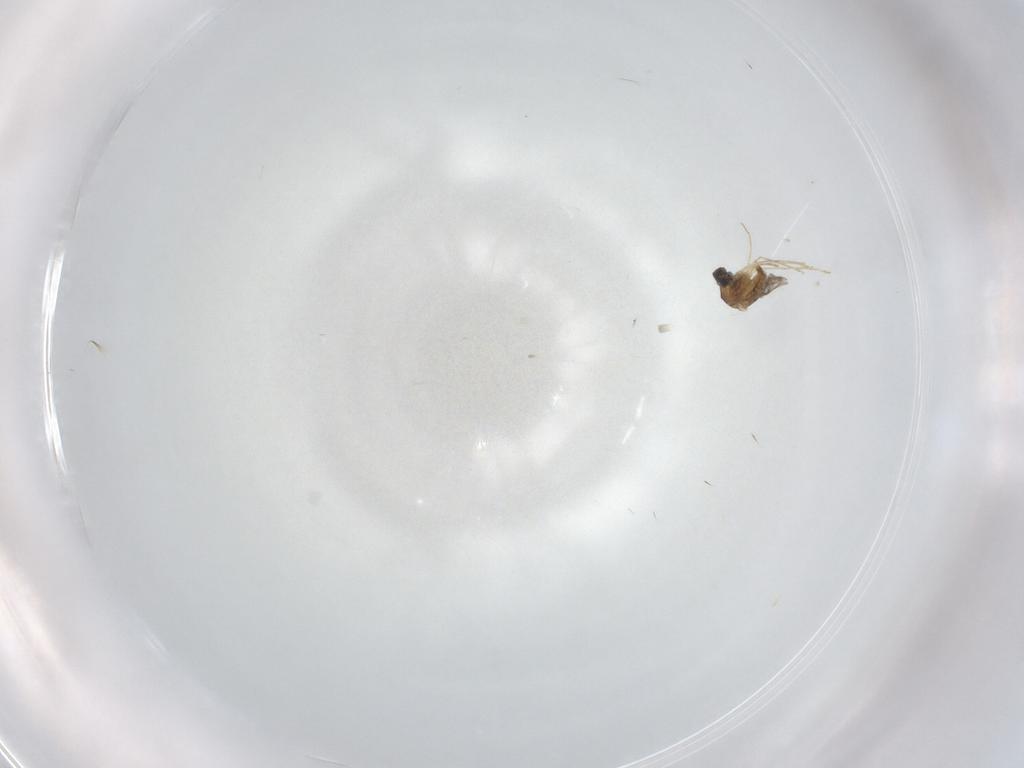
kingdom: Animalia
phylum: Arthropoda
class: Insecta
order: Diptera
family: Cecidomyiidae
